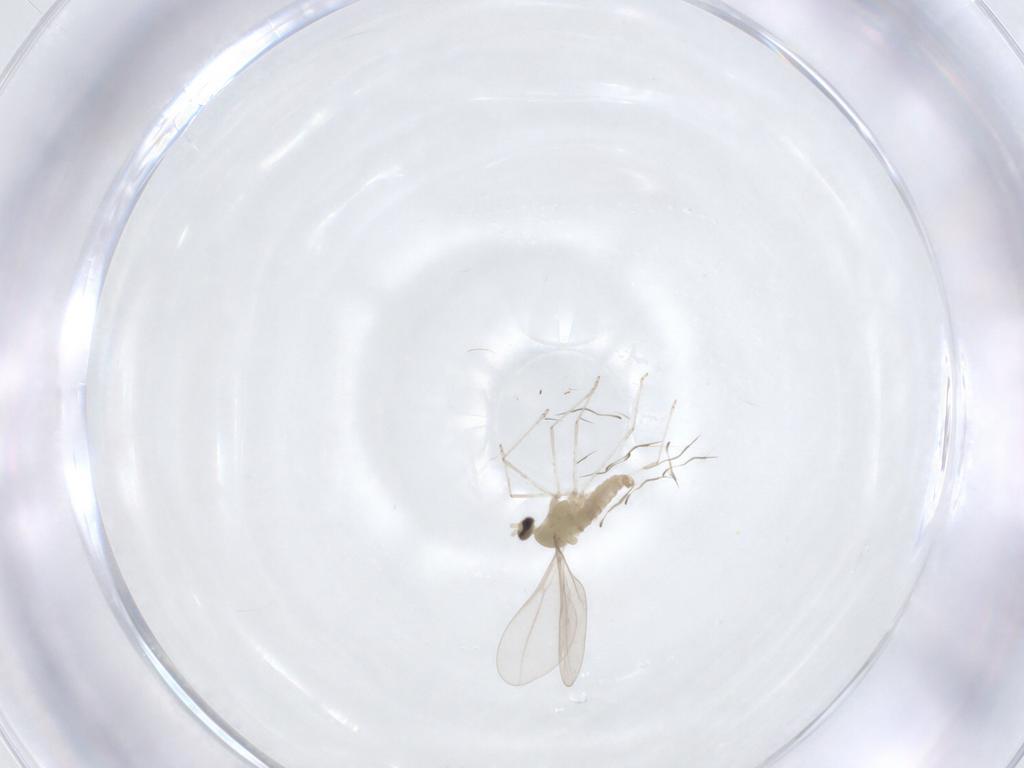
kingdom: Animalia
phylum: Arthropoda
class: Insecta
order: Diptera
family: Cecidomyiidae
